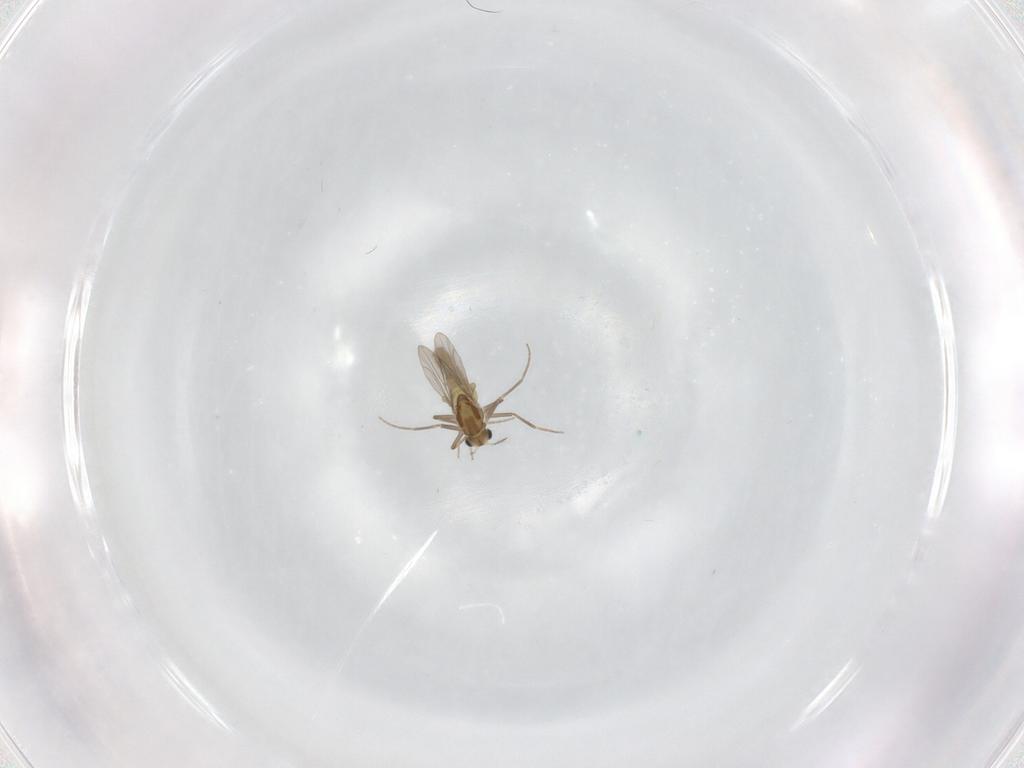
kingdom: Animalia
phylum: Arthropoda
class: Insecta
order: Diptera
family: Chironomidae
